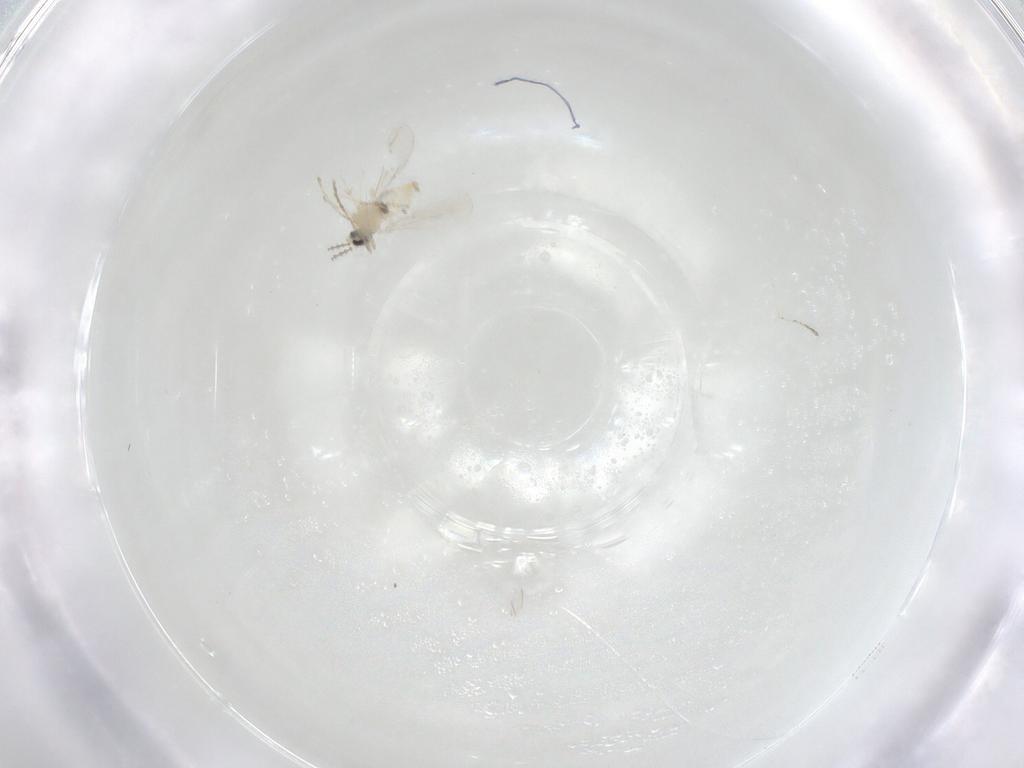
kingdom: Animalia
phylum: Arthropoda
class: Insecta
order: Diptera
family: Cecidomyiidae
